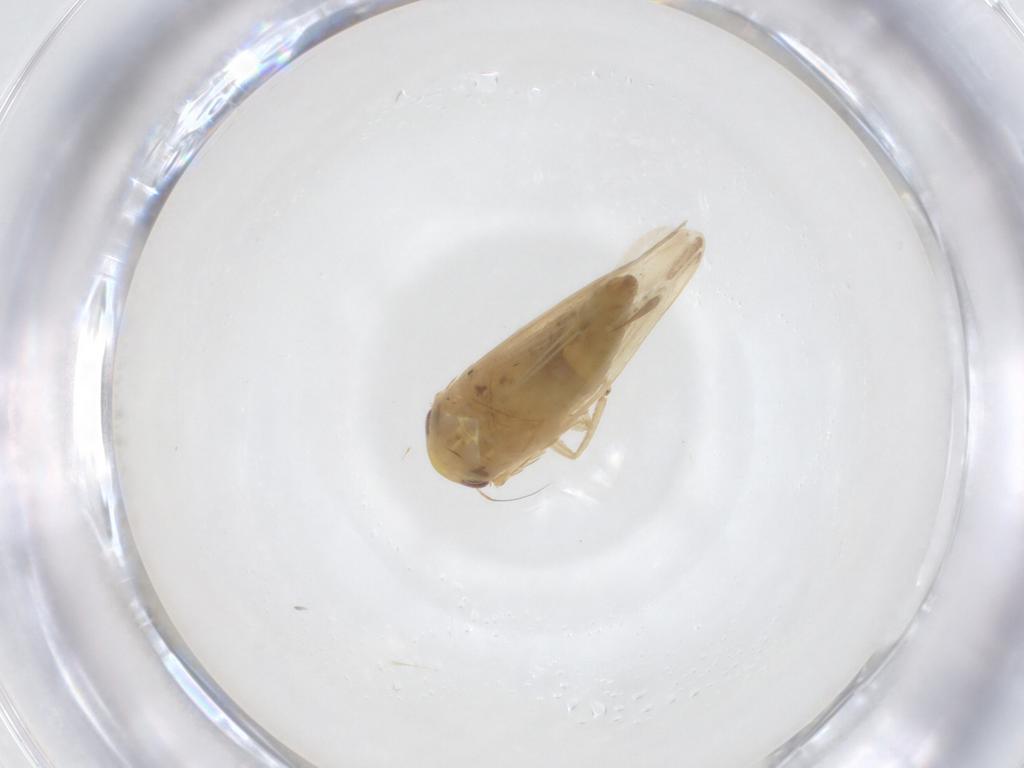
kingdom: Animalia
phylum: Arthropoda
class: Insecta
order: Hemiptera
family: Cicadellidae
